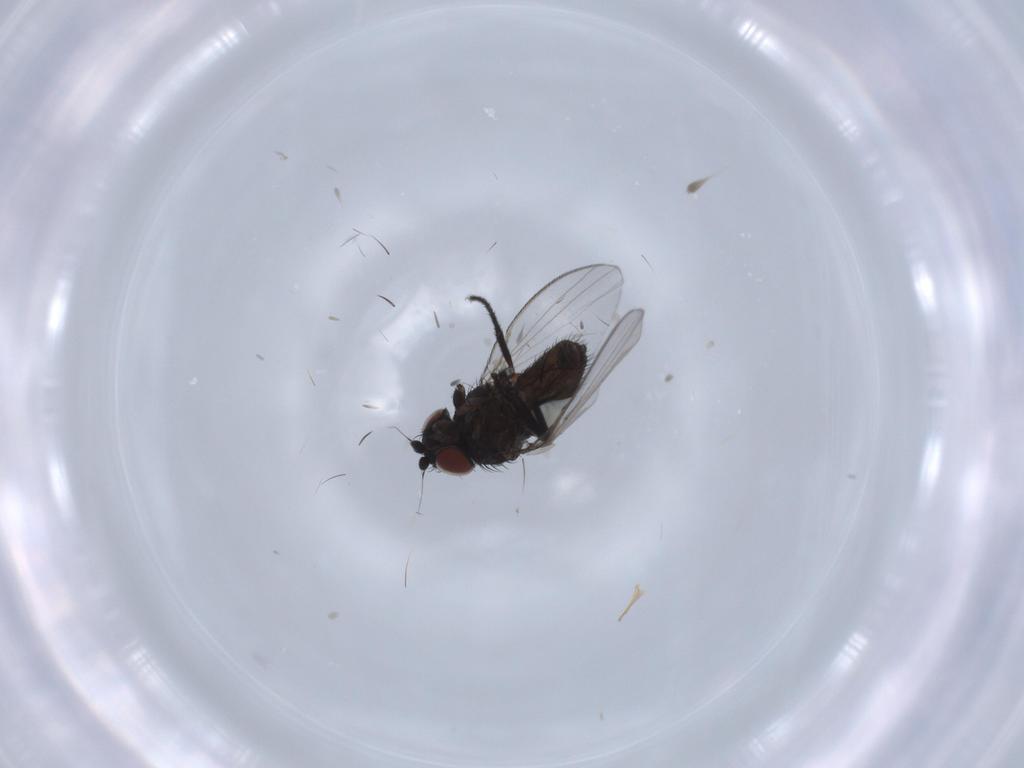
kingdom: Animalia
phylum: Arthropoda
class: Insecta
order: Diptera
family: Milichiidae
